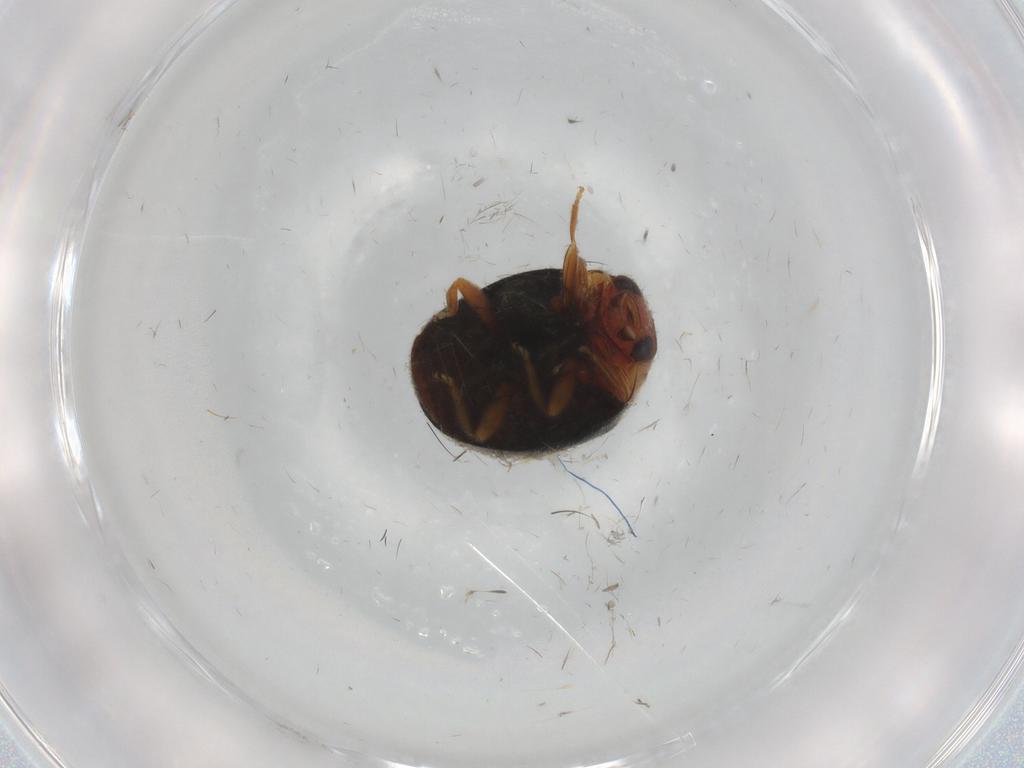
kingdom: Animalia
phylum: Arthropoda
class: Insecta
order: Coleoptera
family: Coccinellidae
